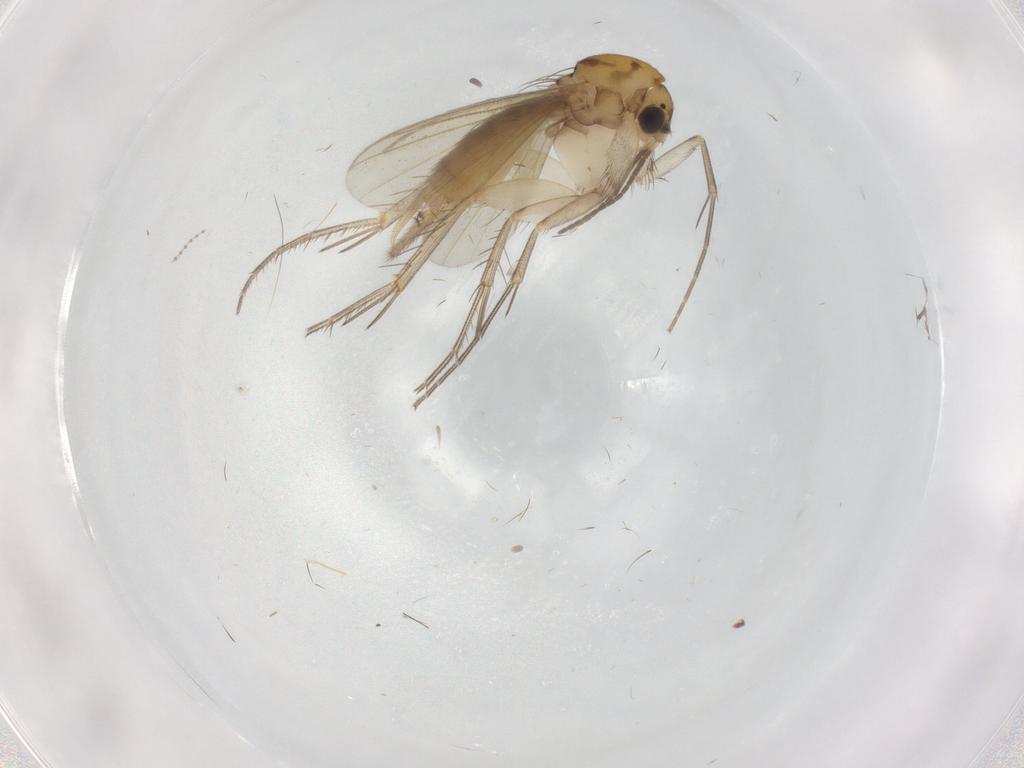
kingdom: Animalia
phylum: Arthropoda
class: Insecta
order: Diptera
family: Mycetophilidae
